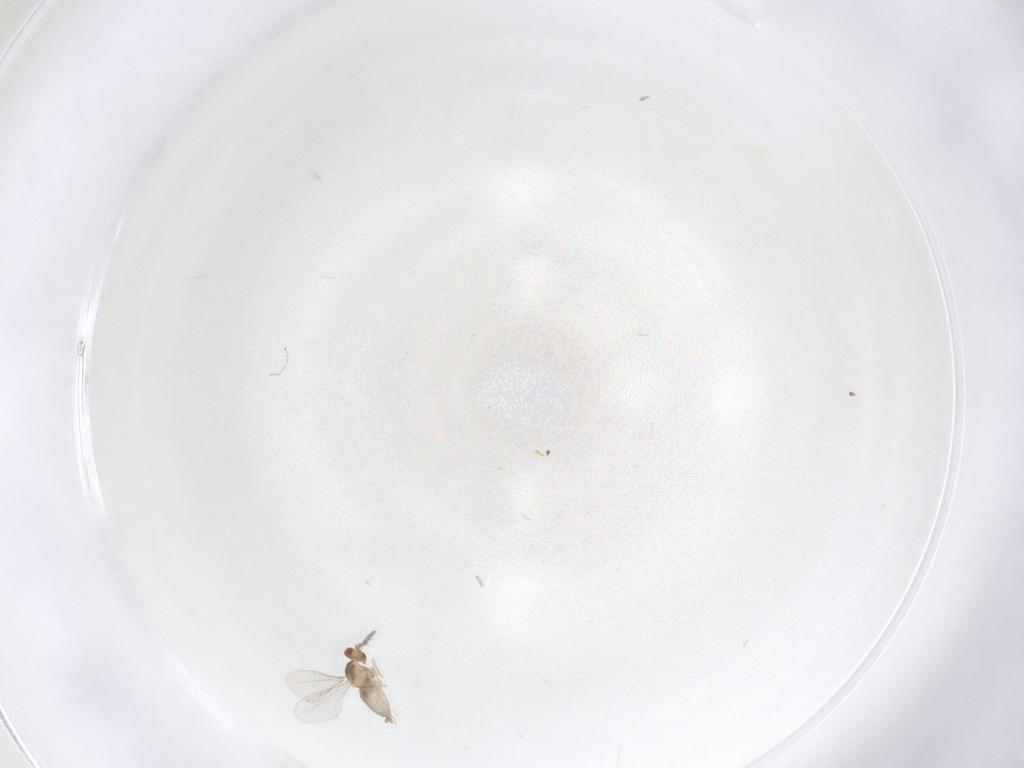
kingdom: Animalia
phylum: Arthropoda
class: Insecta
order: Diptera
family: Cecidomyiidae
